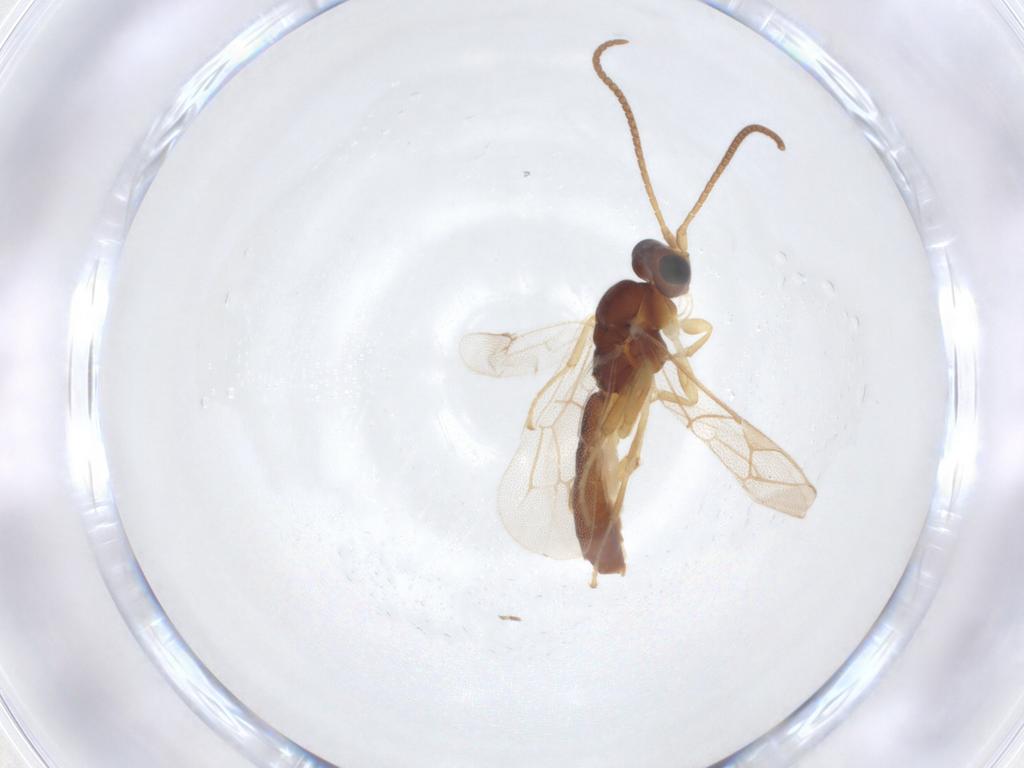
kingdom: Animalia
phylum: Arthropoda
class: Insecta
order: Hymenoptera
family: Ichneumonidae
